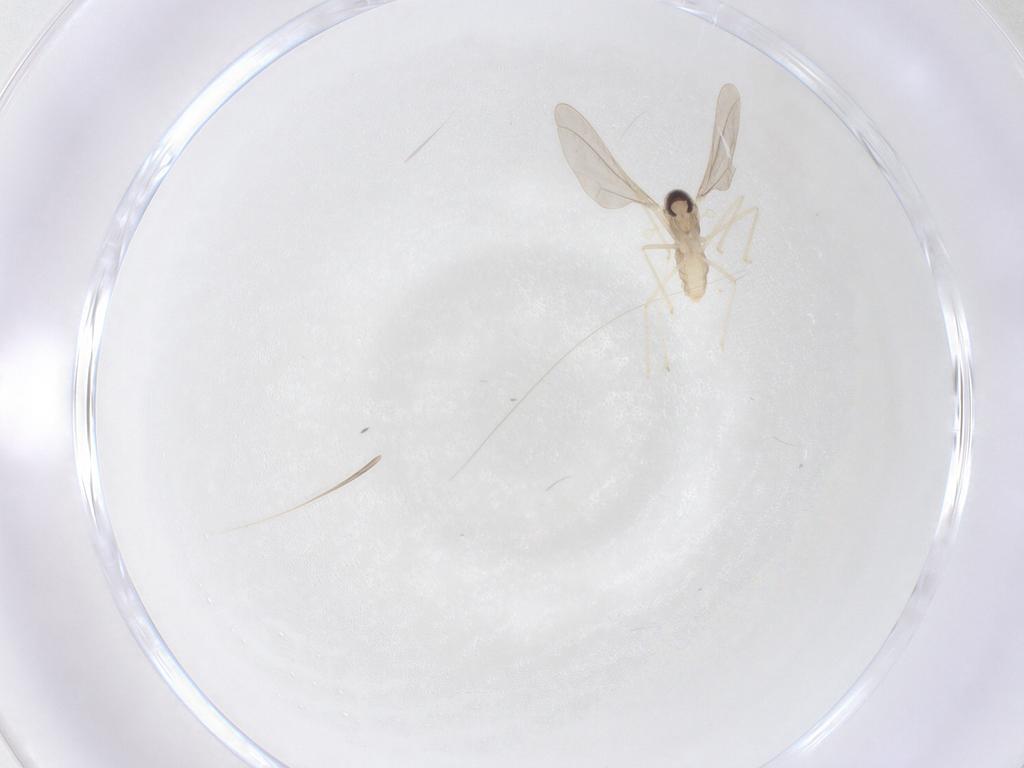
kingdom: Animalia
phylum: Arthropoda
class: Insecta
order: Diptera
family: Cecidomyiidae
